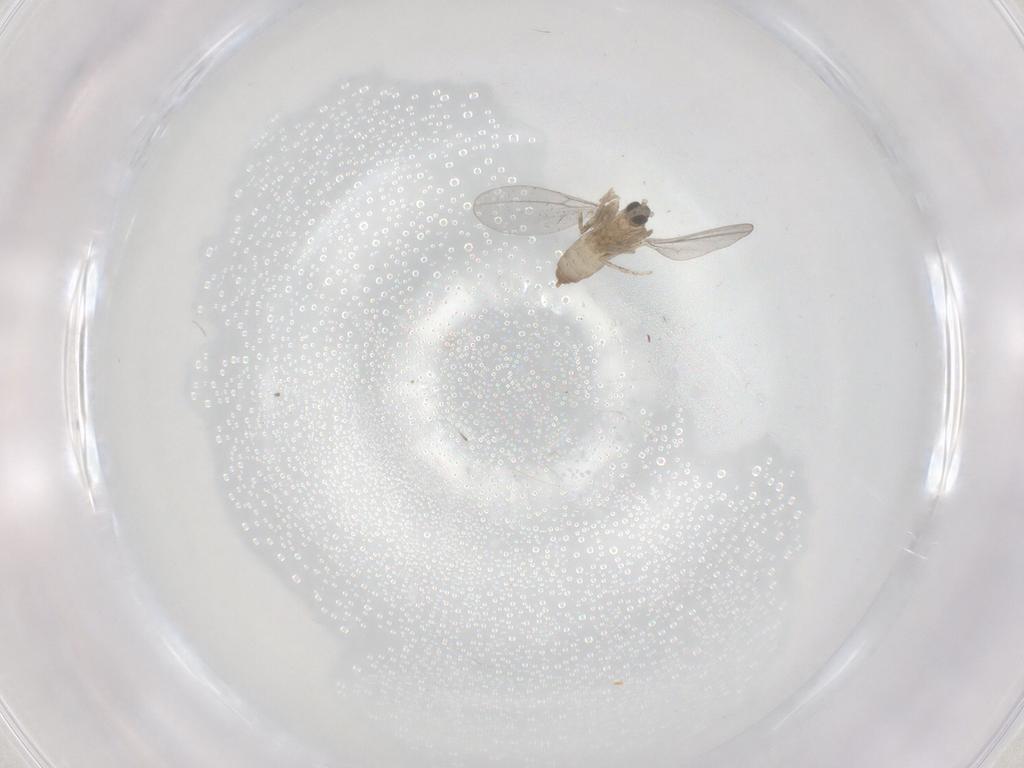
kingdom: Animalia
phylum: Arthropoda
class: Insecta
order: Diptera
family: Cecidomyiidae
